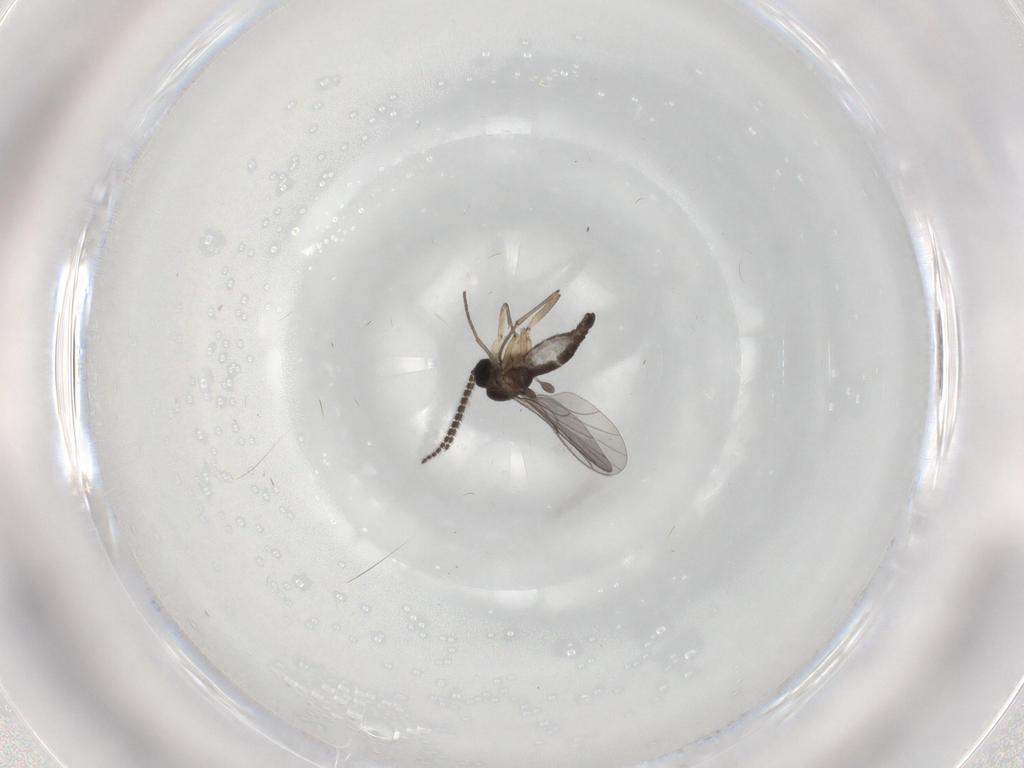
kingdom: Animalia
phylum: Arthropoda
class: Insecta
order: Diptera
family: Sciaridae
